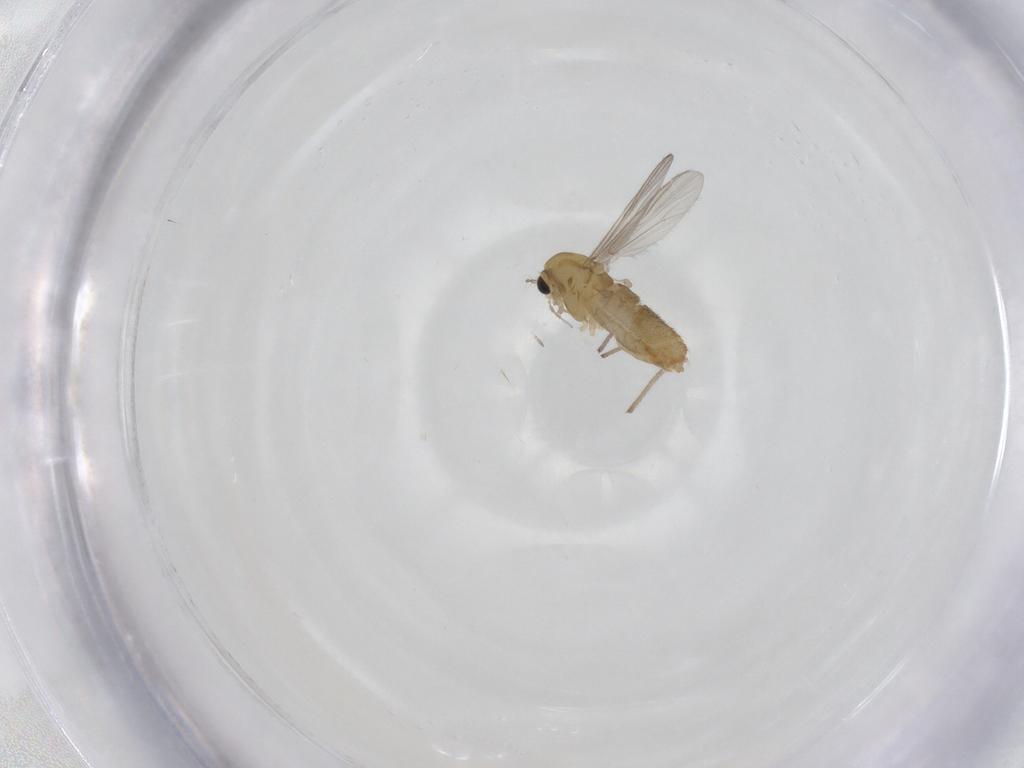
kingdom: Animalia
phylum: Arthropoda
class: Insecta
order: Diptera
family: Chironomidae
